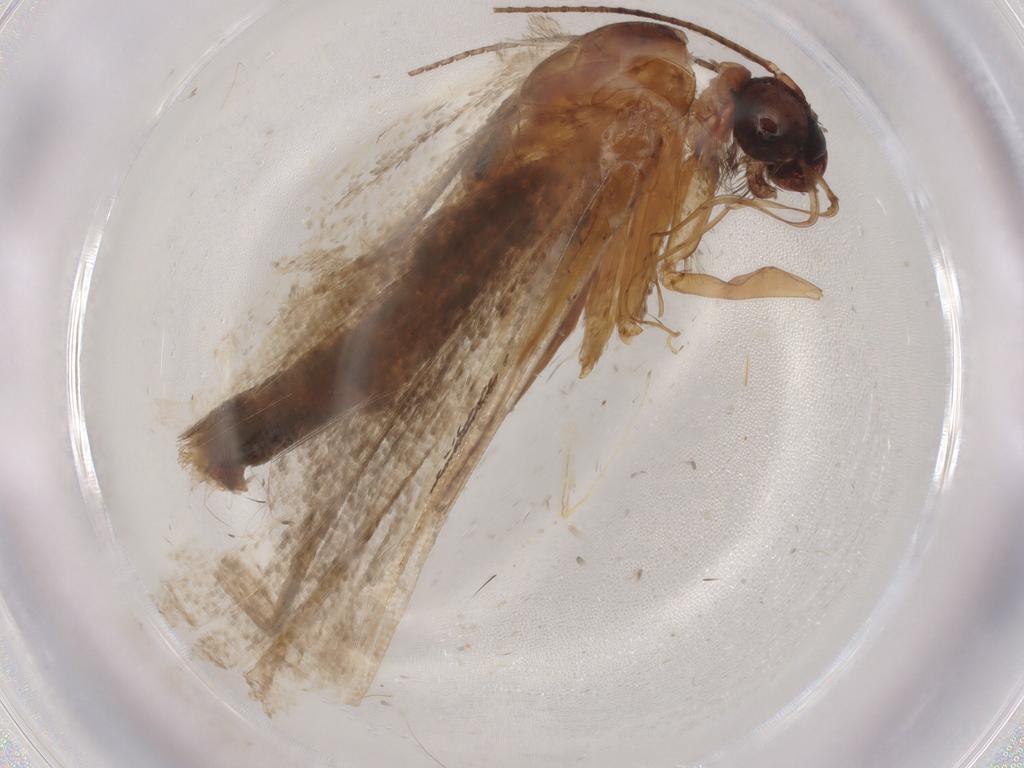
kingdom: Animalia
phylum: Arthropoda
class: Insecta
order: Lepidoptera
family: Erebidae
